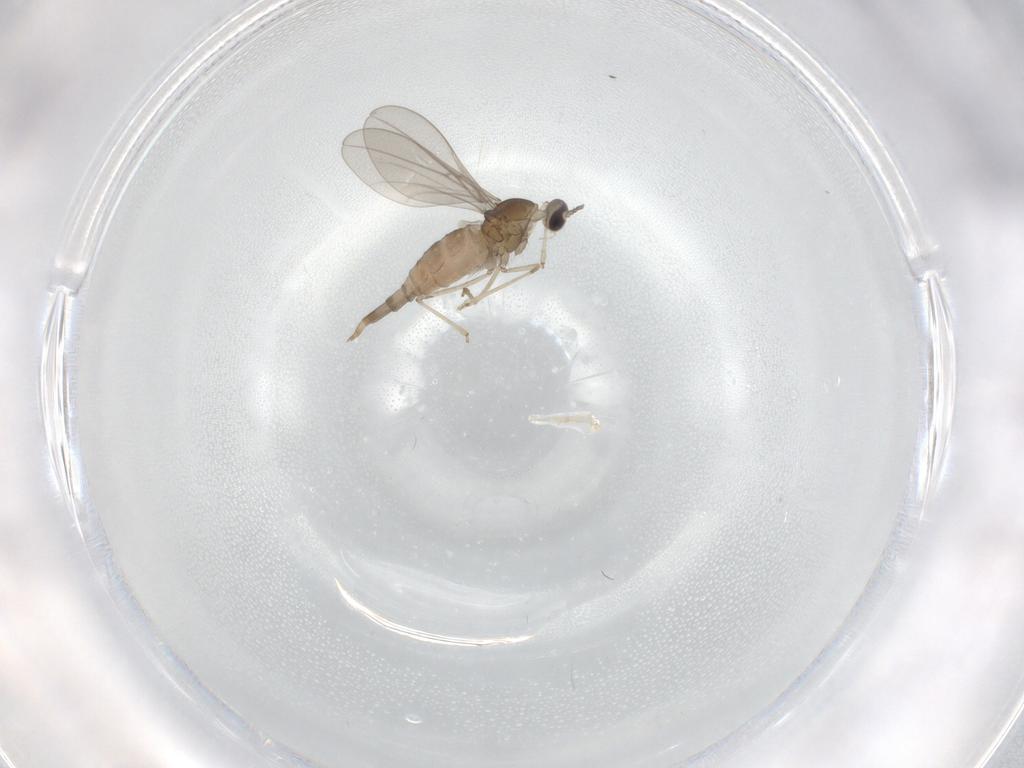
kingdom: Animalia
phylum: Arthropoda
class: Insecta
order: Diptera
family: Cecidomyiidae
